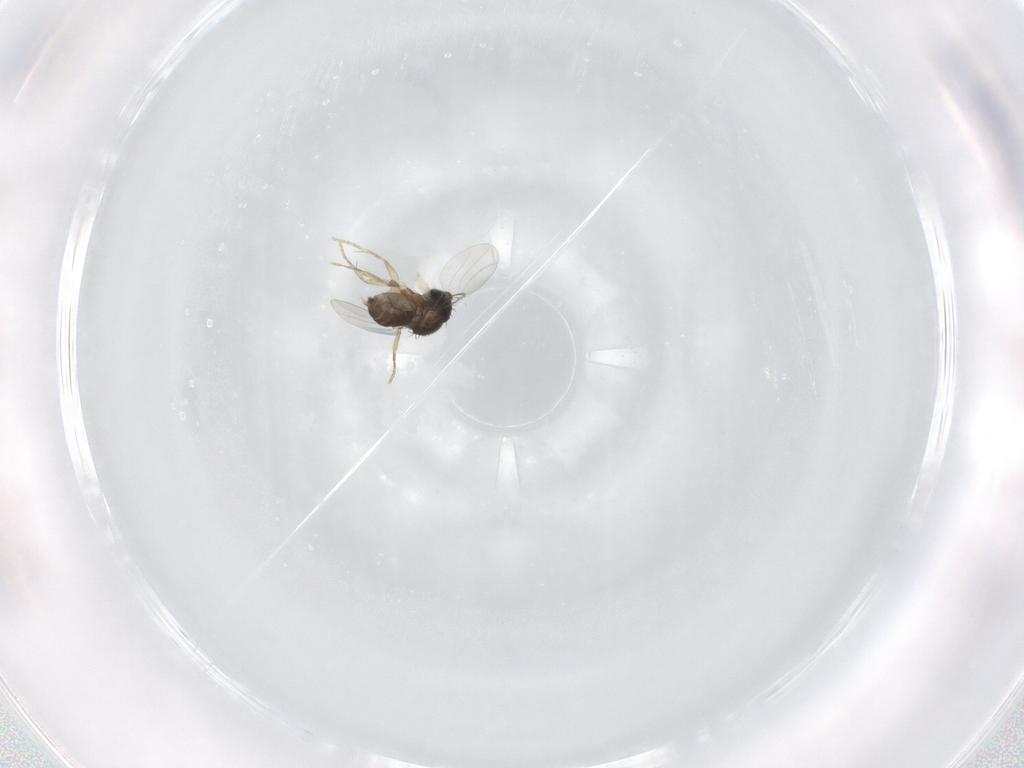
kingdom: Animalia
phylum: Arthropoda
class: Insecta
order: Diptera
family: Phoridae
